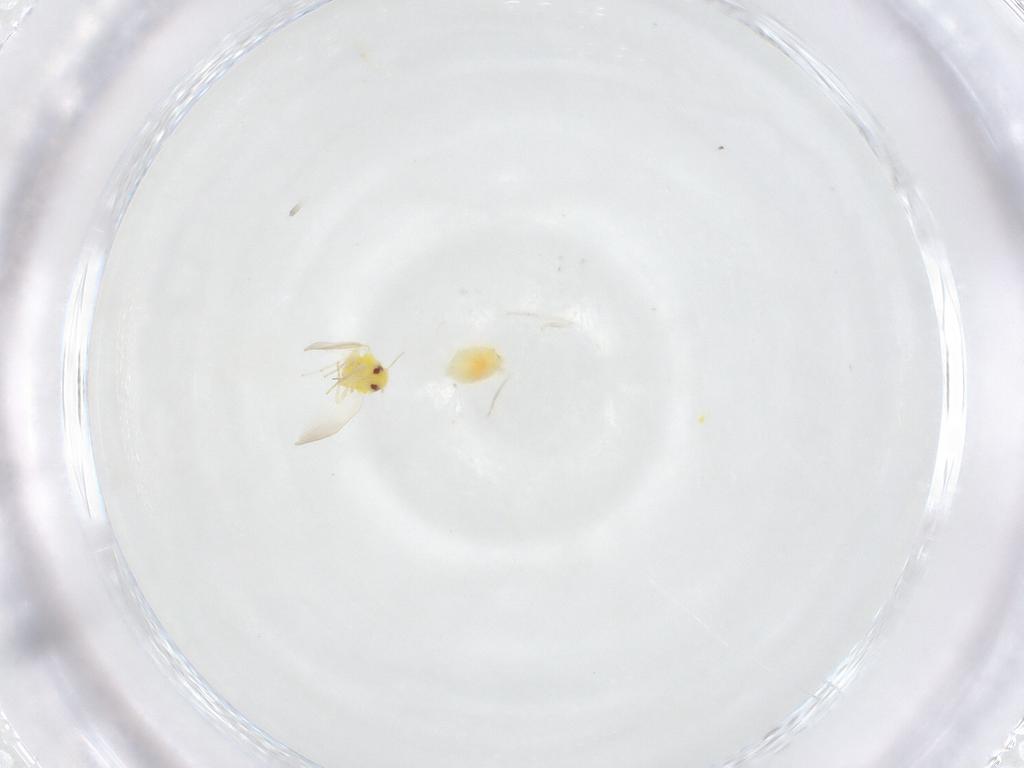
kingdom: Animalia
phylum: Arthropoda
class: Insecta
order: Hemiptera
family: Aleyrodidae
